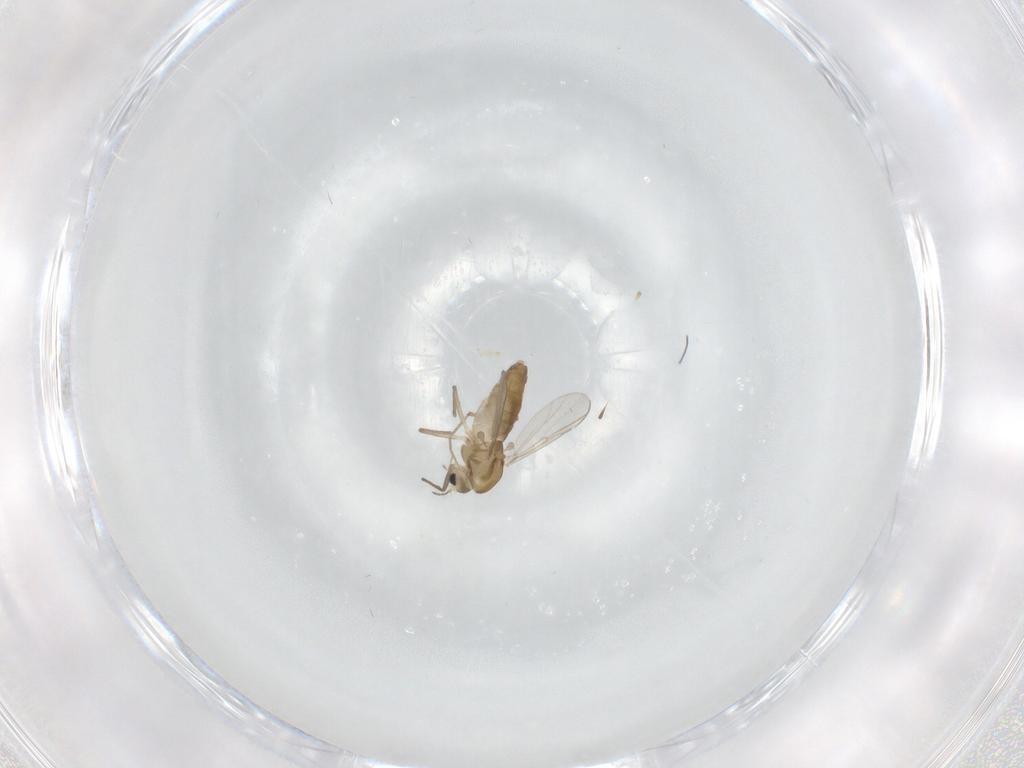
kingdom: Animalia
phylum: Arthropoda
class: Insecta
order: Diptera
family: Chironomidae
